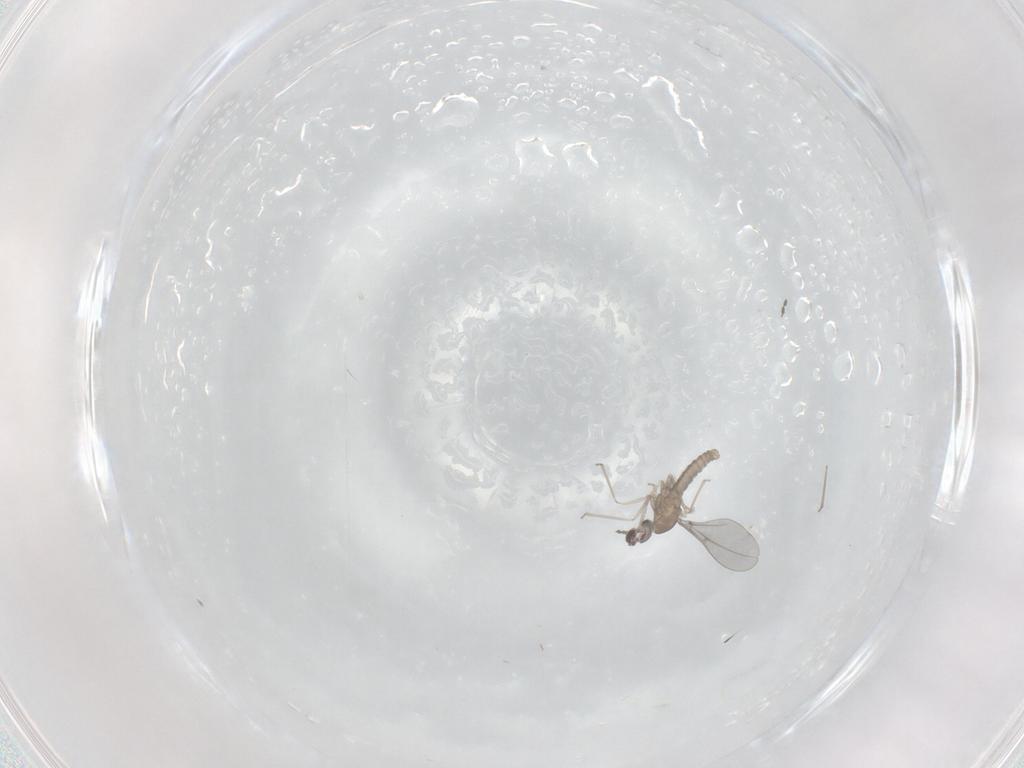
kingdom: Animalia
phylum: Arthropoda
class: Insecta
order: Diptera
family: Cecidomyiidae
